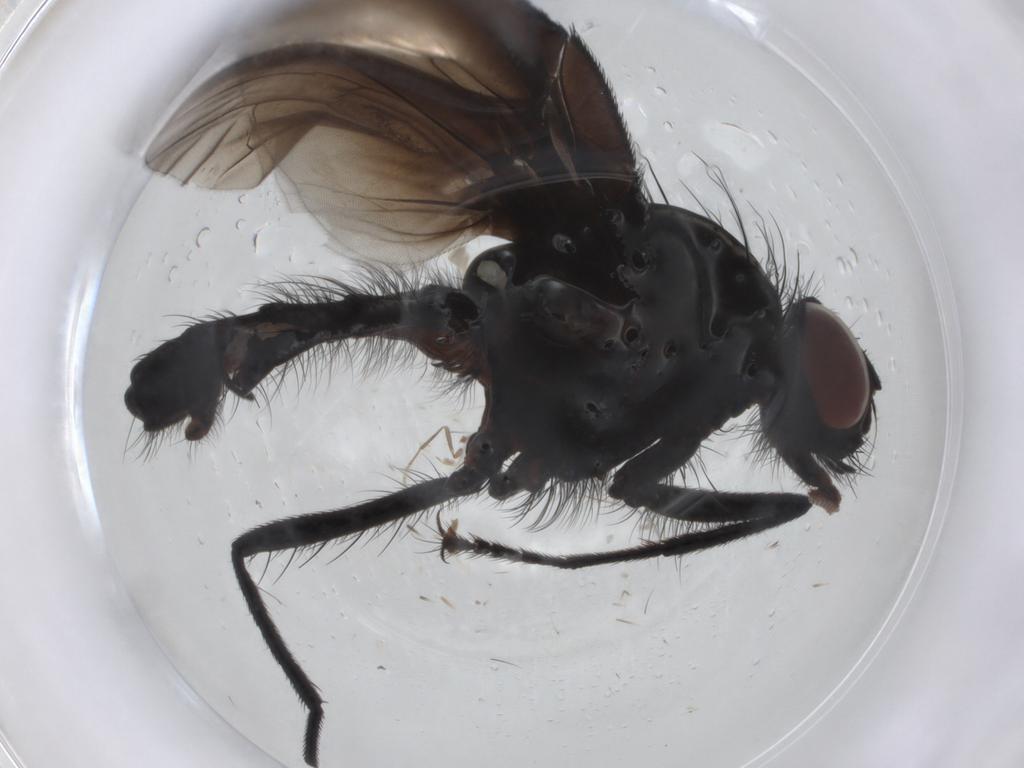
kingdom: Animalia
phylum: Arthropoda
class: Insecta
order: Diptera
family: Anthomyiidae
